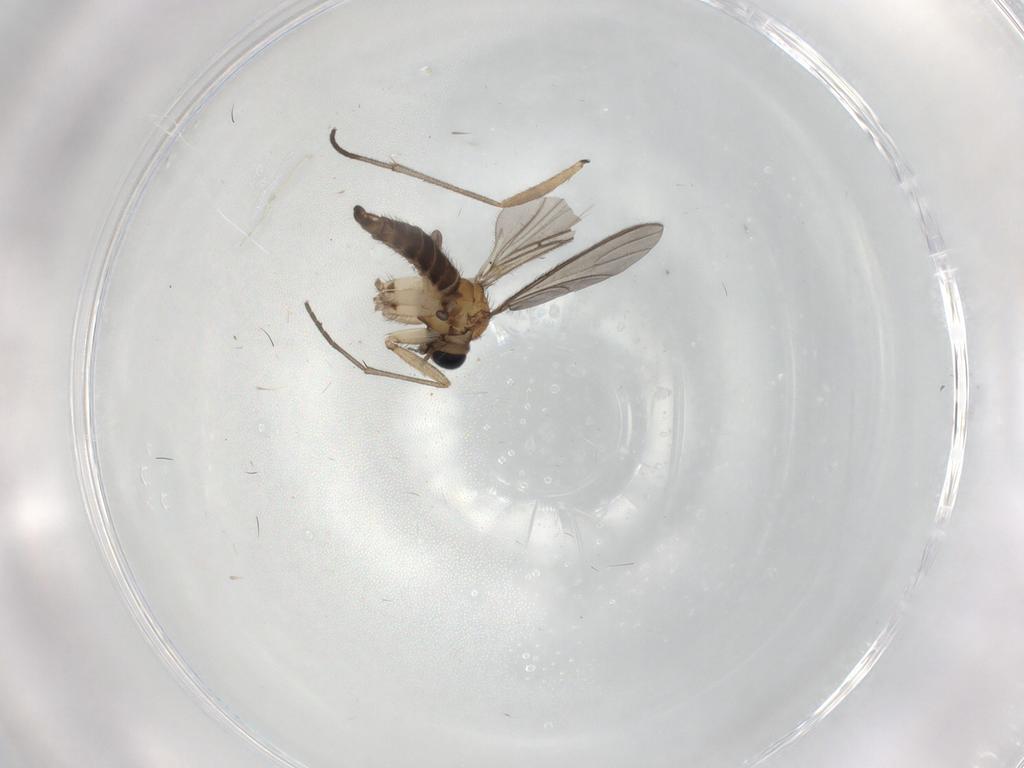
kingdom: Animalia
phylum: Arthropoda
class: Insecta
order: Diptera
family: Sciaridae
